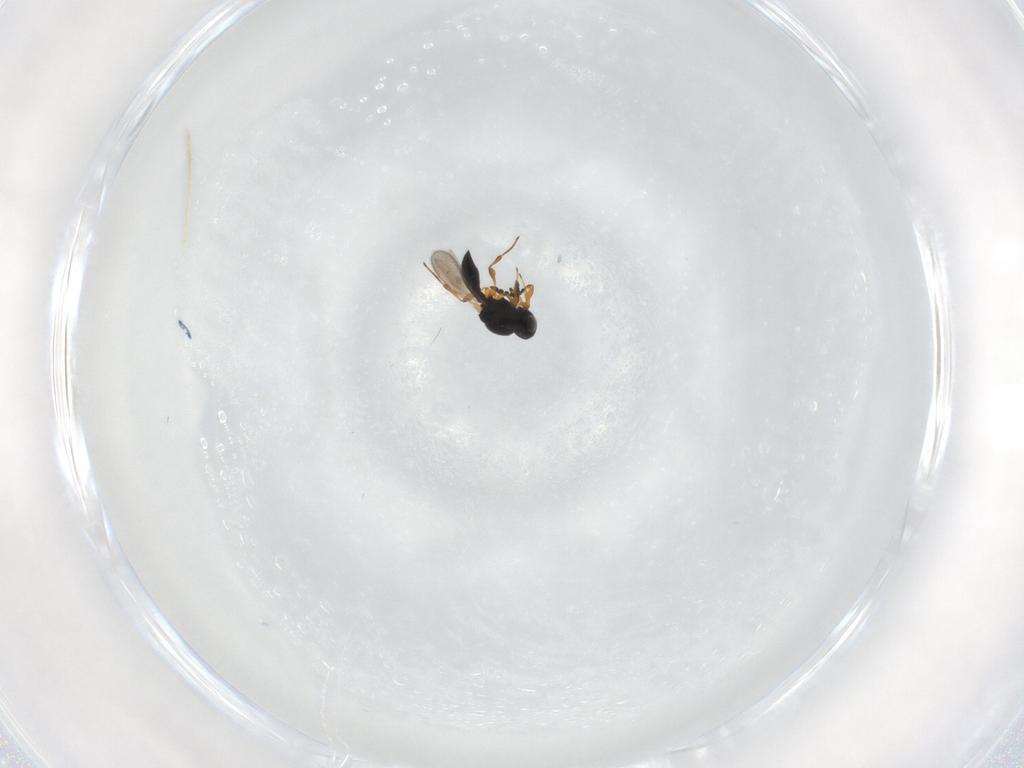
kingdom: Animalia
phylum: Arthropoda
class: Insecta
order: Hymenoptera
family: Platygastridae
